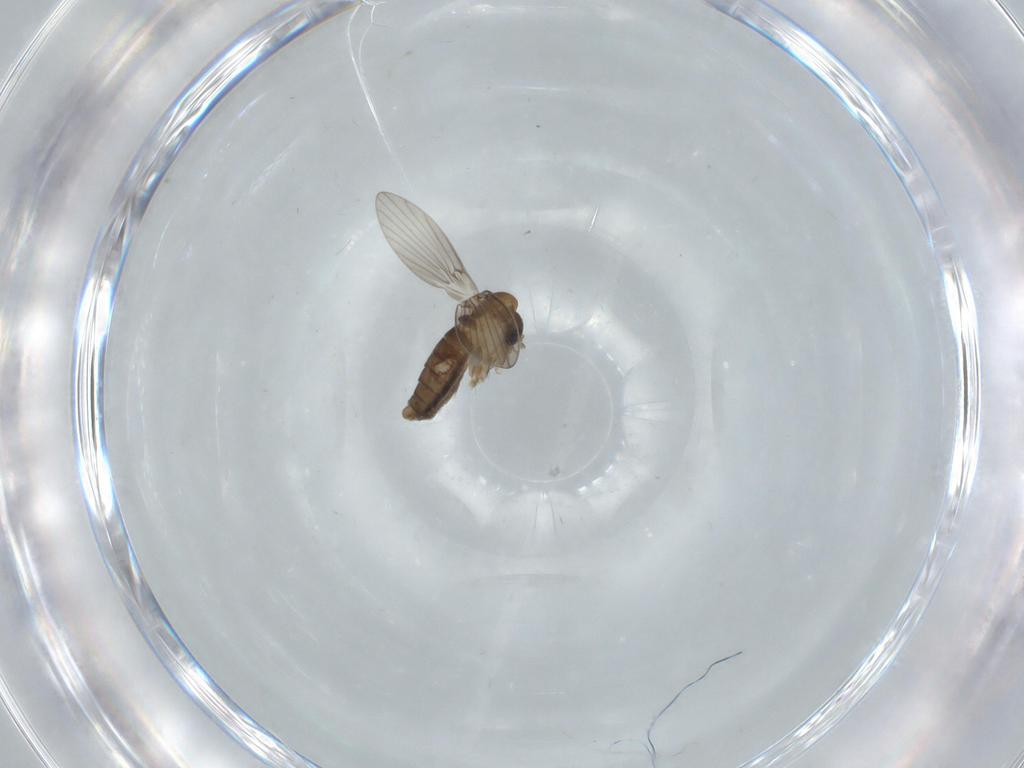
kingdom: Animalia
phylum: Arthropoda
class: Insecta
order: Diptera
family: Psychodidae
